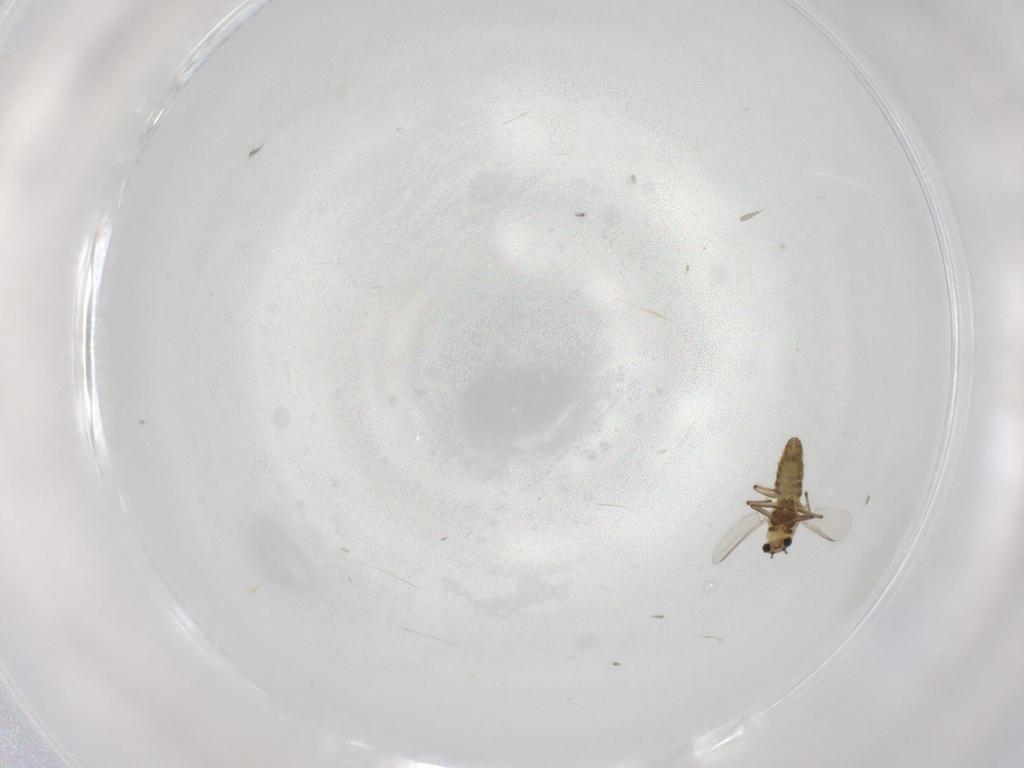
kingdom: Animalia
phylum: Arthropoda
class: Insecta
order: Diptera
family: Chironomidae
